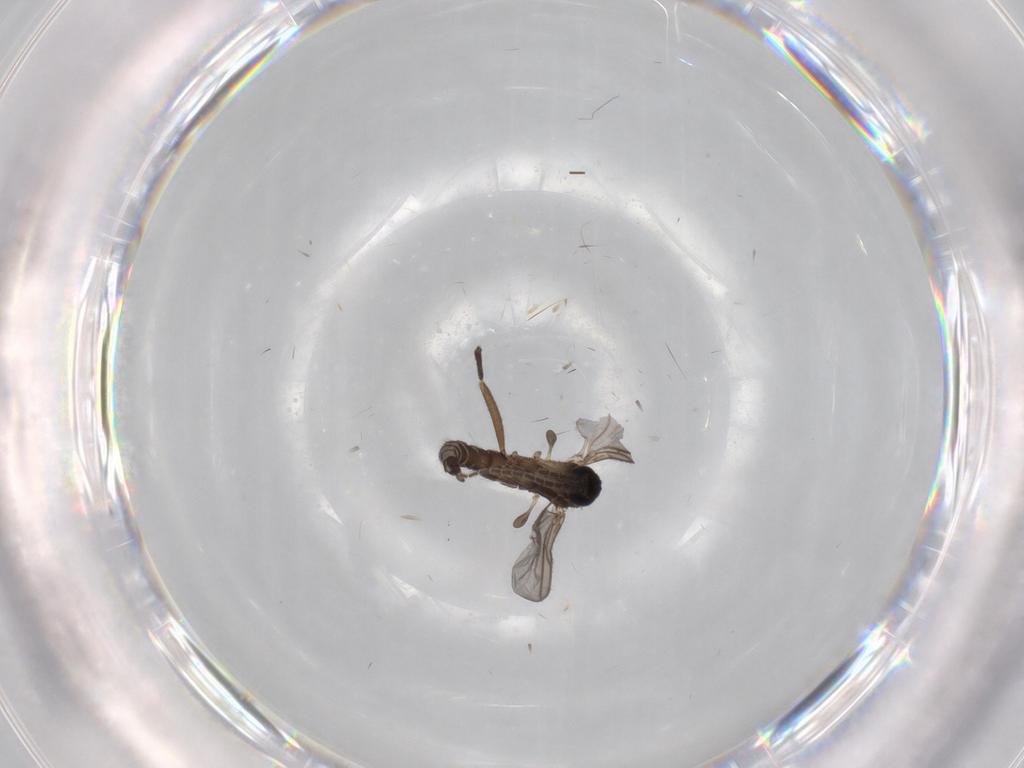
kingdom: Animalia
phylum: Arthropoda
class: Insecta
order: Diptera
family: Sciaridae
